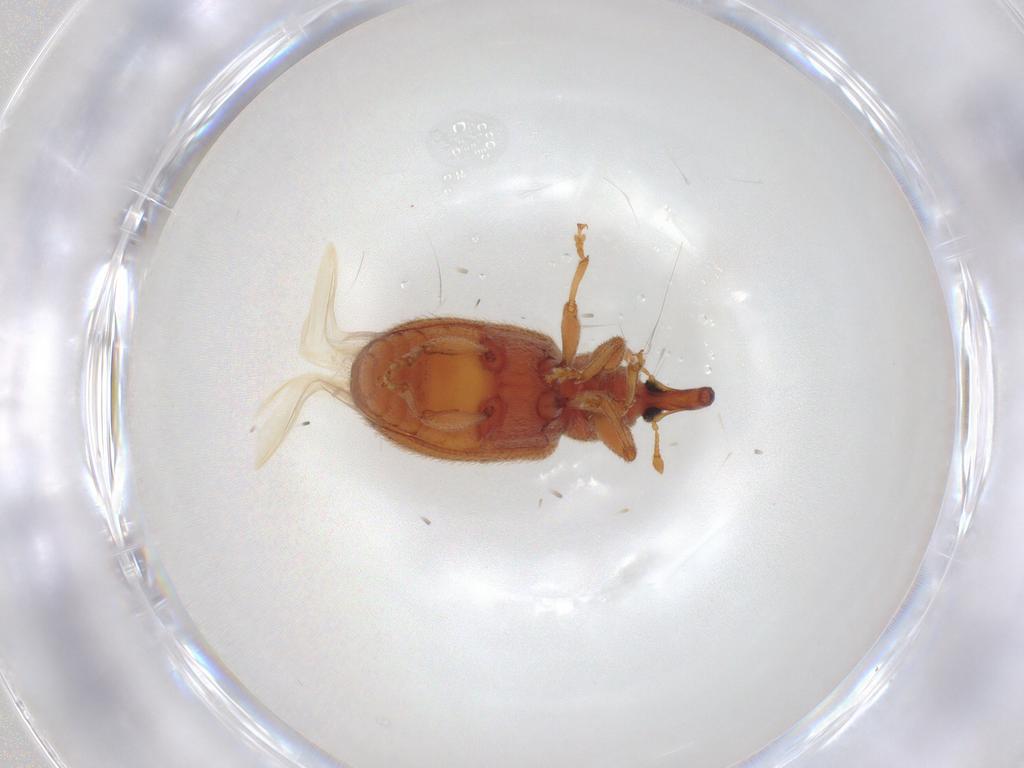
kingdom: Animalia
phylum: Arthropoda
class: Insecta
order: Coleoptera
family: Curculionidae
